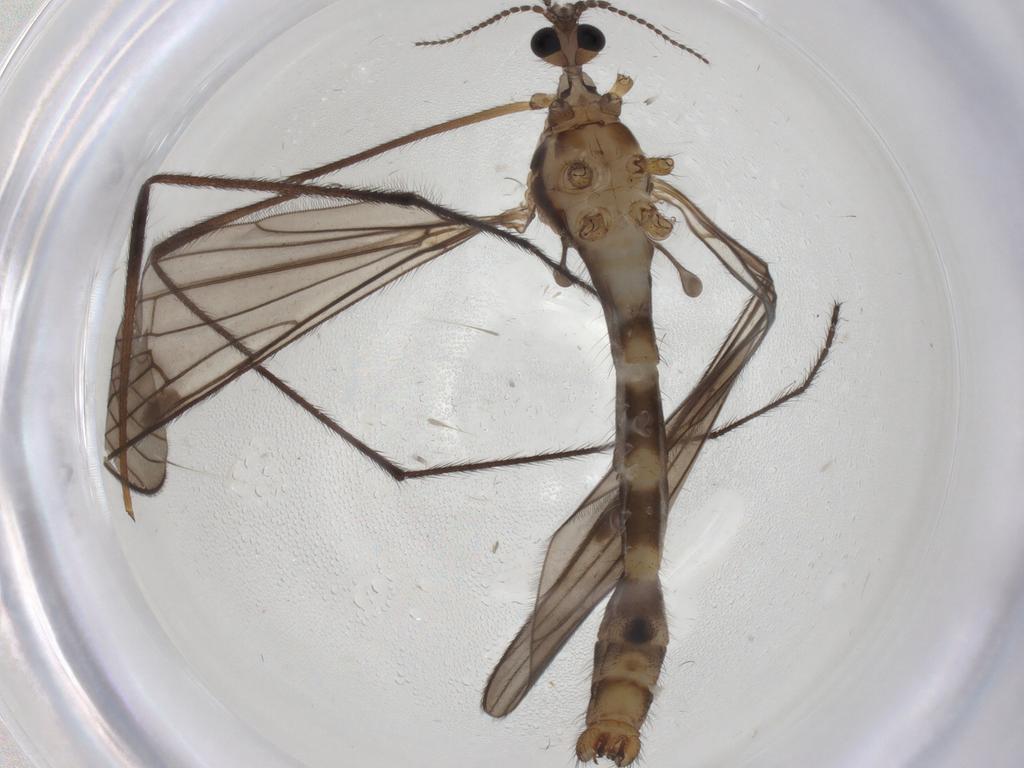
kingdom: Animalia
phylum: Arthropoda
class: Insecta
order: Diptera
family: Limoniidae
